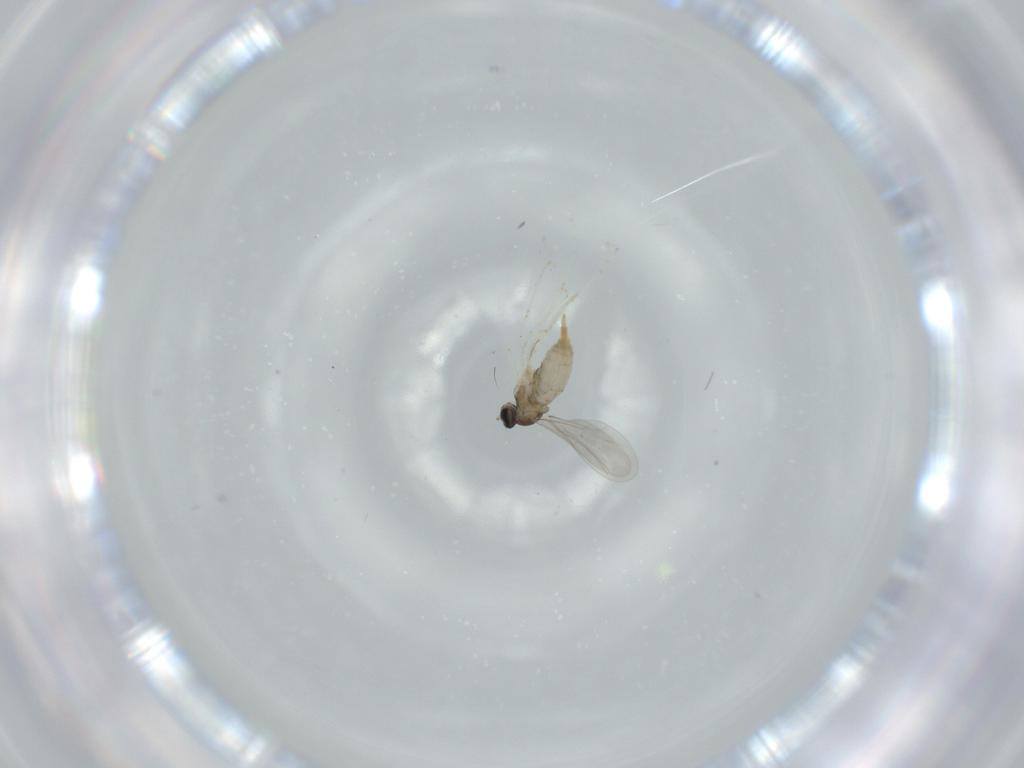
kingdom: Animalia
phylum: Arthropoda
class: Insecta
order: Diptera
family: Cecidomyiidae
